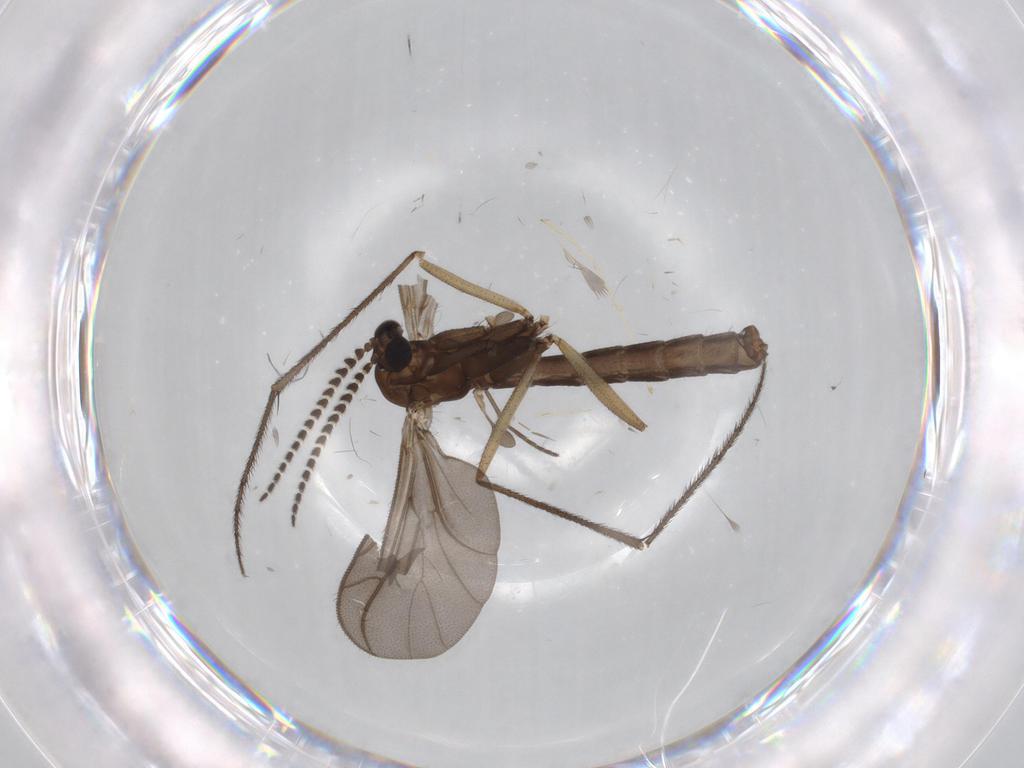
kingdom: Animalia
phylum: Arthropoda
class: Insecta
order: Diptera
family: Ditomyiidae
